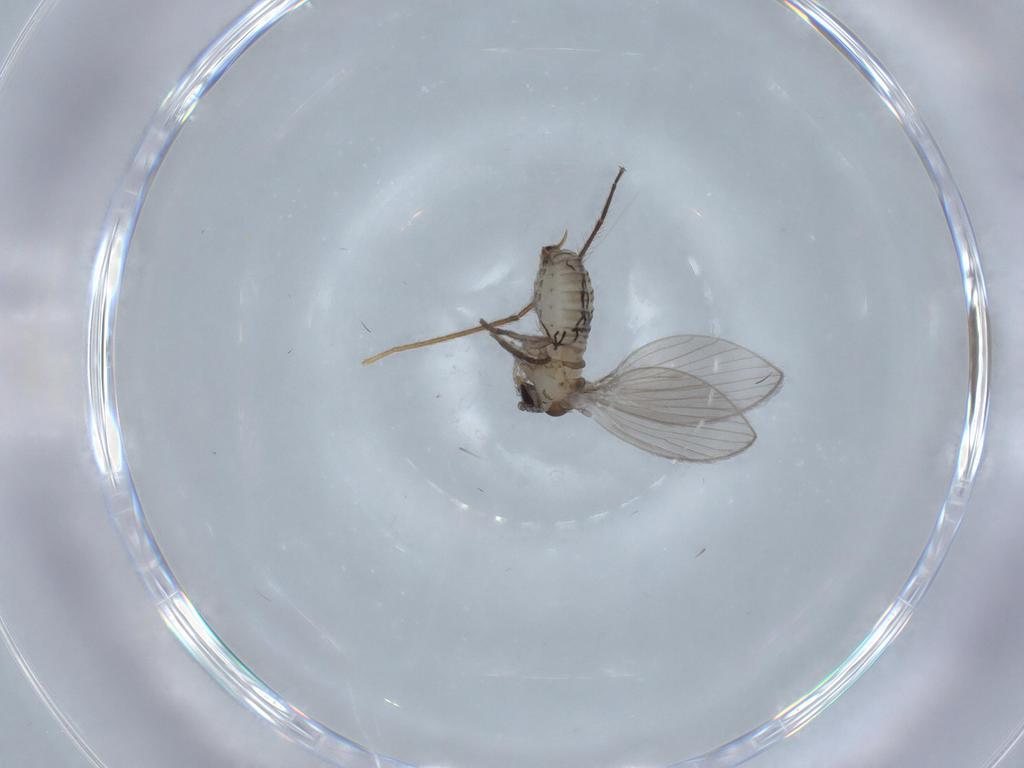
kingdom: Animalia
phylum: Arthropoda
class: Insecta
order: Diptera
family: Psychodidae
